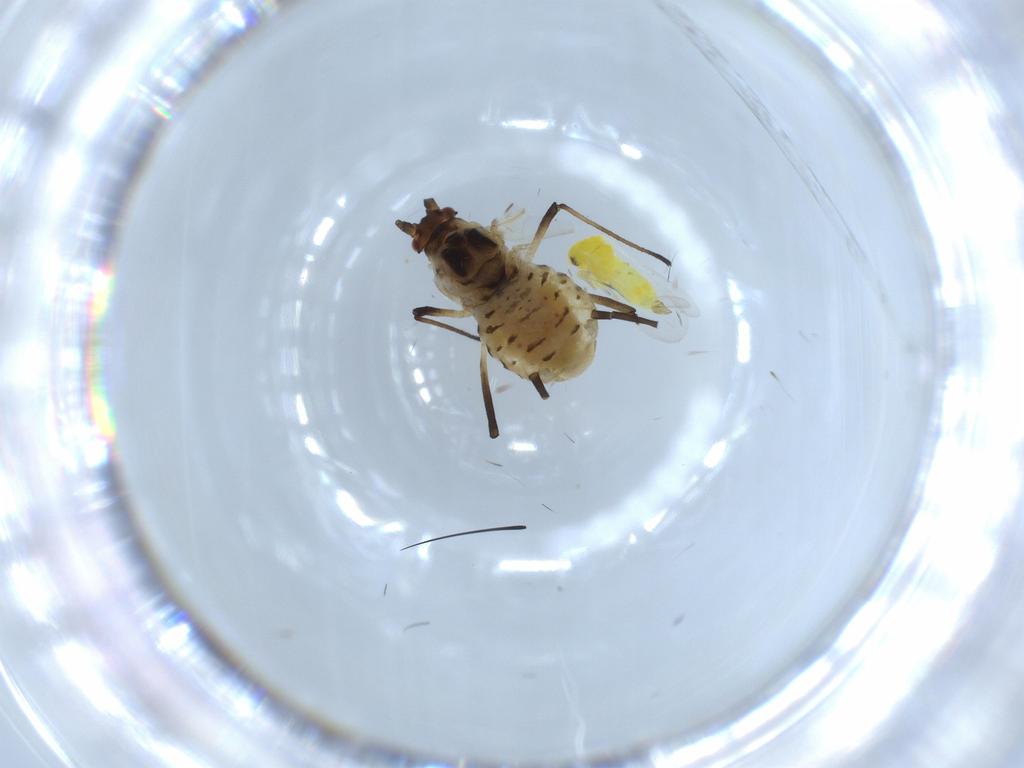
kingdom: Animalia
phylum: Arthropoda
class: Insecta
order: Hemiptera
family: Aphididae
